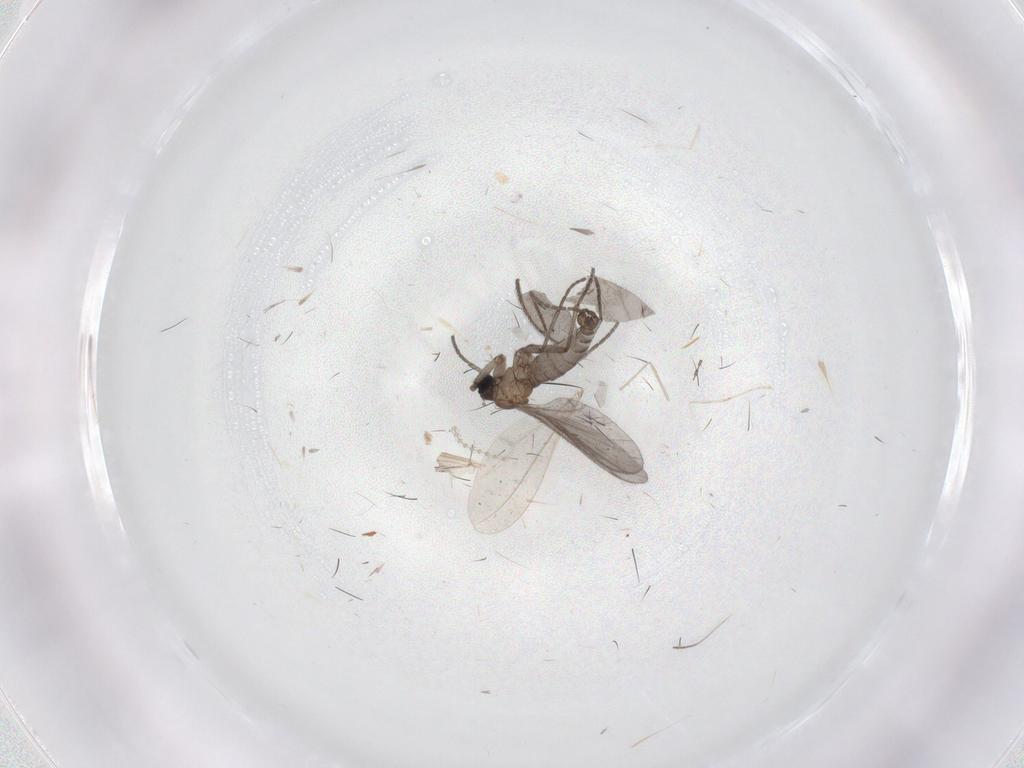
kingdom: Animalia
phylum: Arthropoda
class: Insecta
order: Diptera
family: Sciaridae
